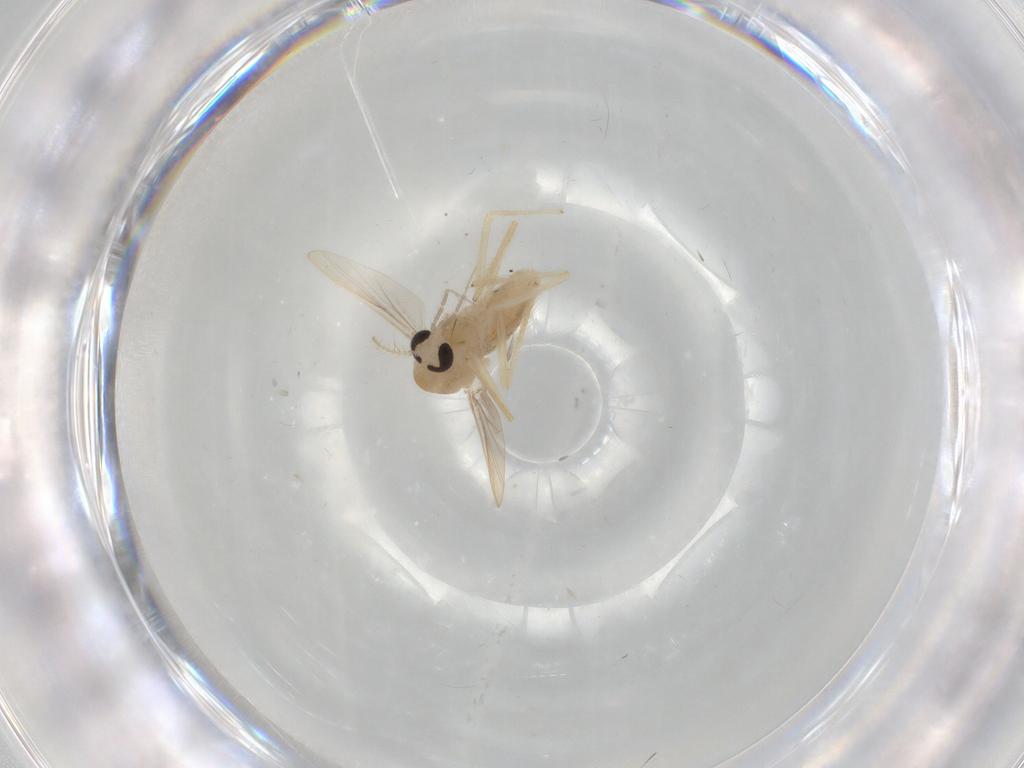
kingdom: Animalia
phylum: Arthropoda
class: Insecta
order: Diptera
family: Chironomidae
